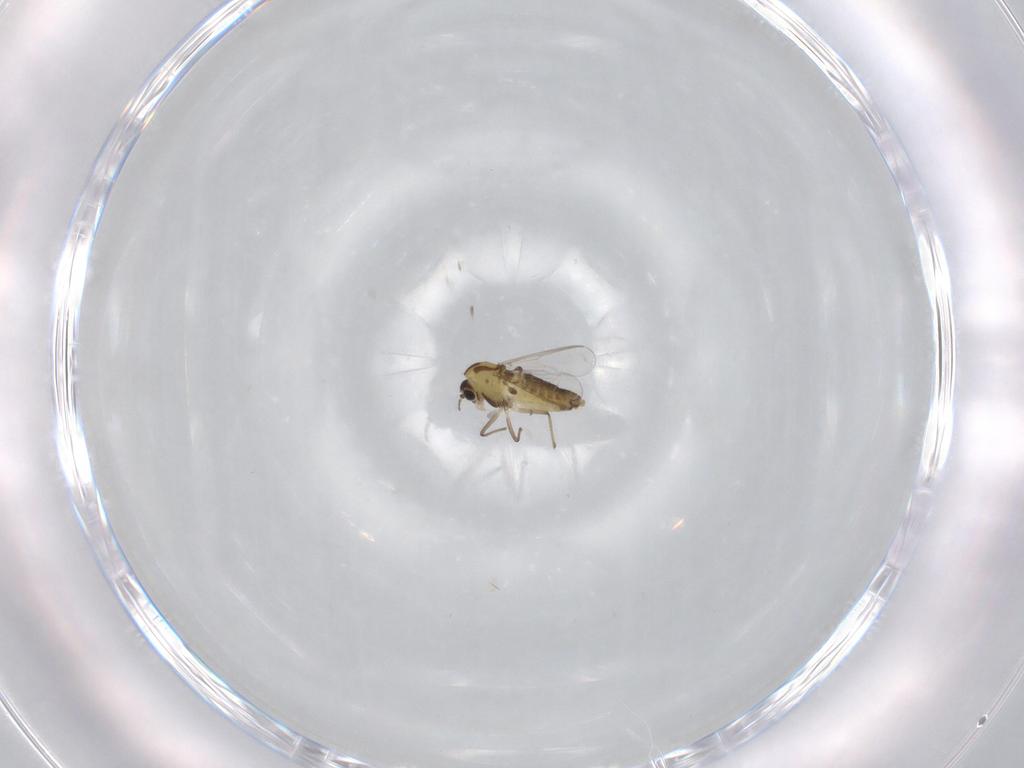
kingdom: Animalia
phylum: Arthropoda
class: Insecta
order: Diptera
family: Chironomidae
